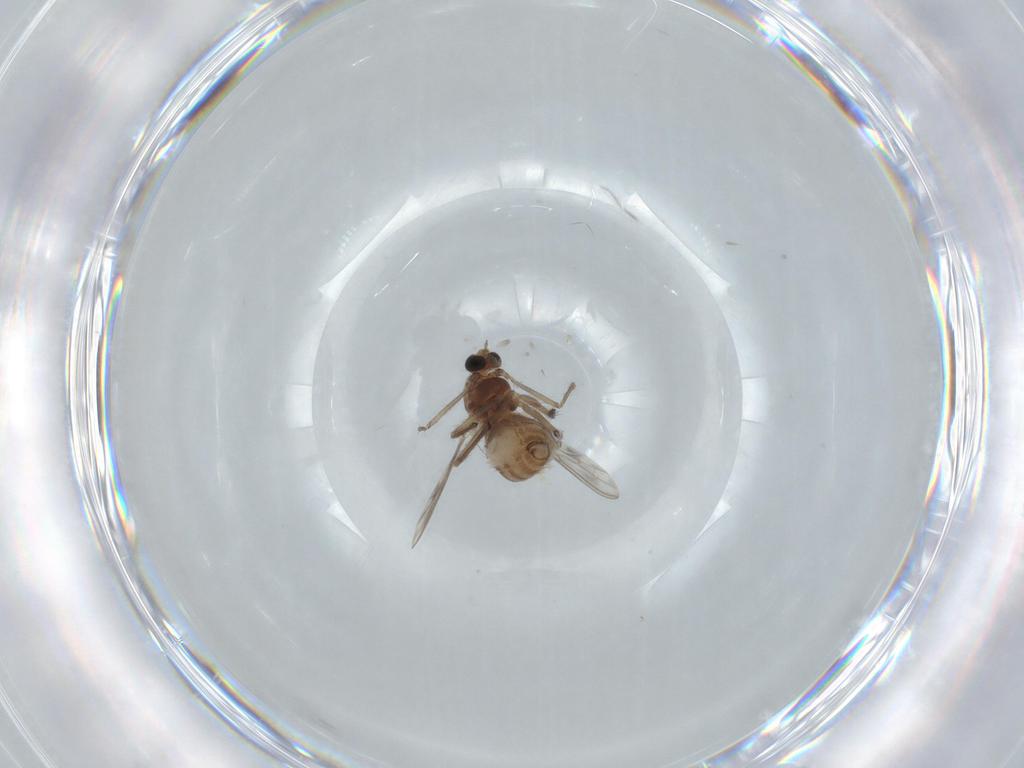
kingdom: Animalia
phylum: Arthropoda
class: Insecta
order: Diptera
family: Chironomidae
